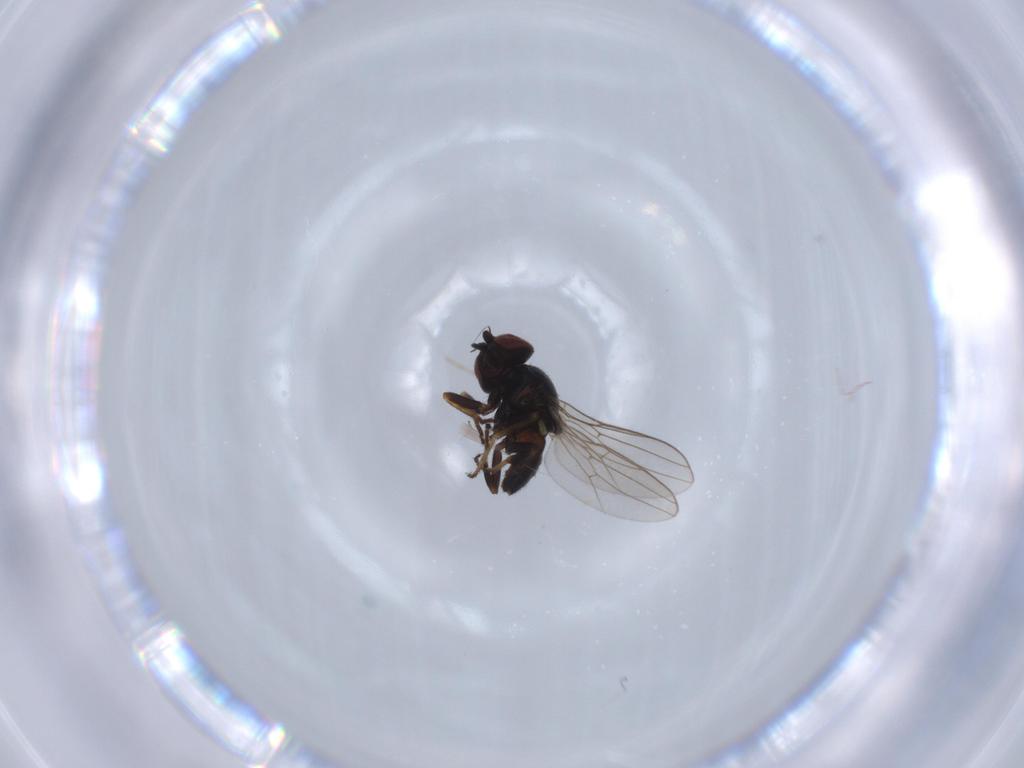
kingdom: Animalia
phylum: Arthropoda
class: Insecta
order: Diptera
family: Chloropidae
